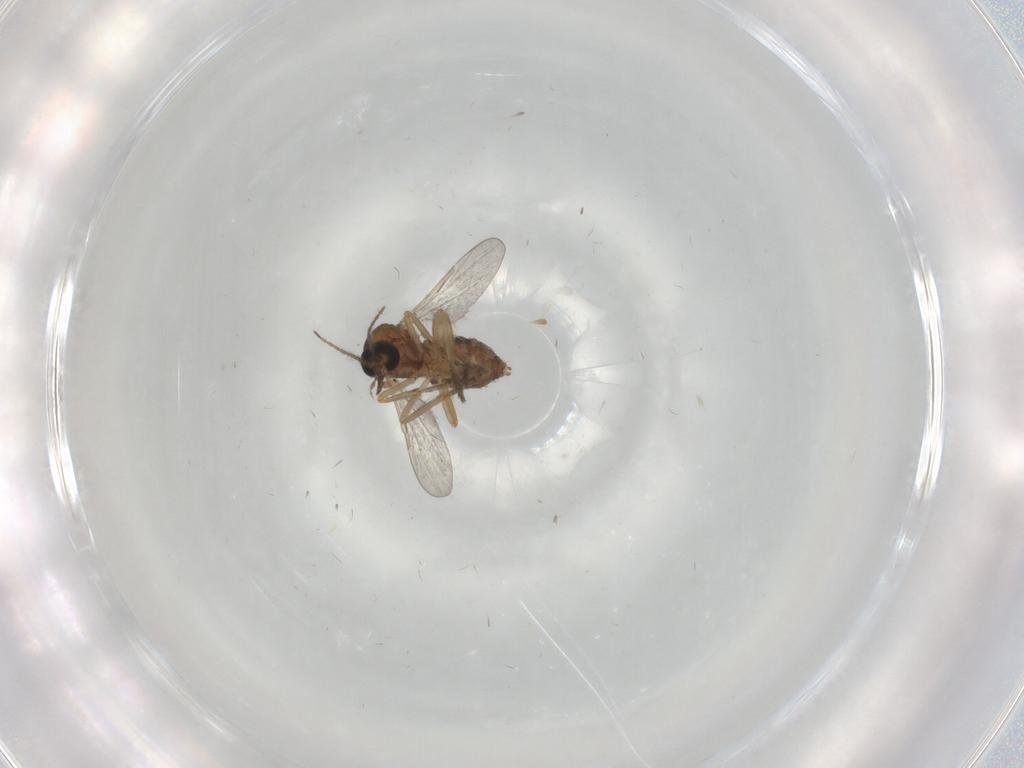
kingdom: Animalia
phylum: Arthropoda
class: Insecta
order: Diptera
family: Ceratopogonidae
